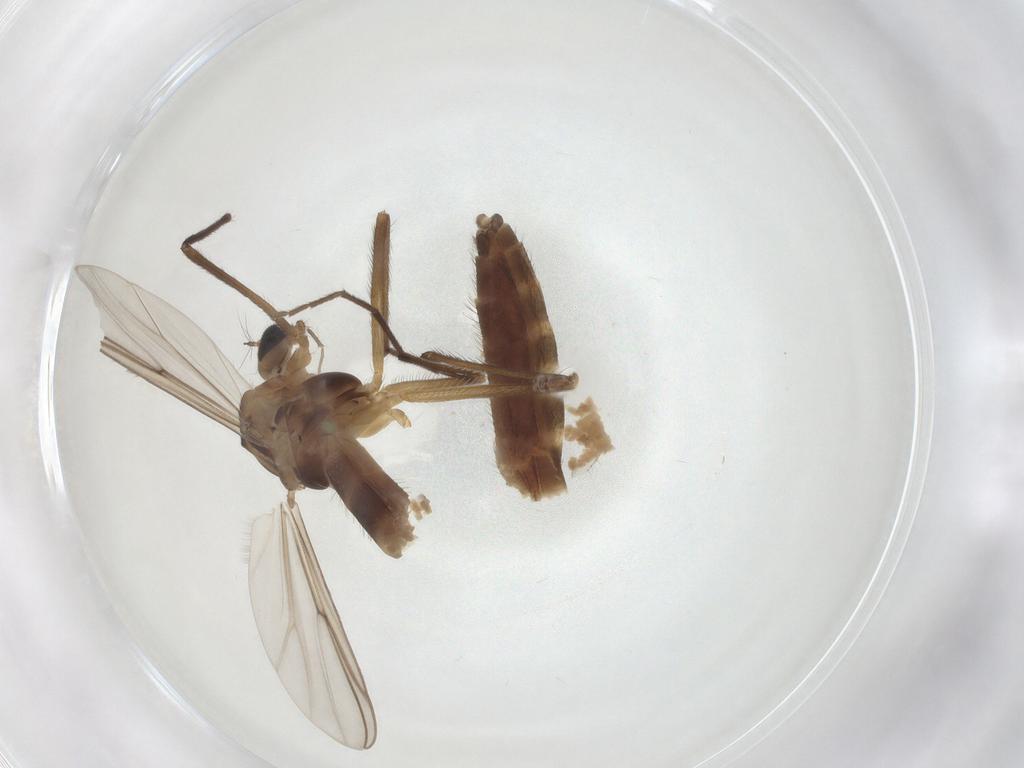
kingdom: Animalia
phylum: Arthropoda
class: Insecta
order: Diptera
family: Chironomidae
